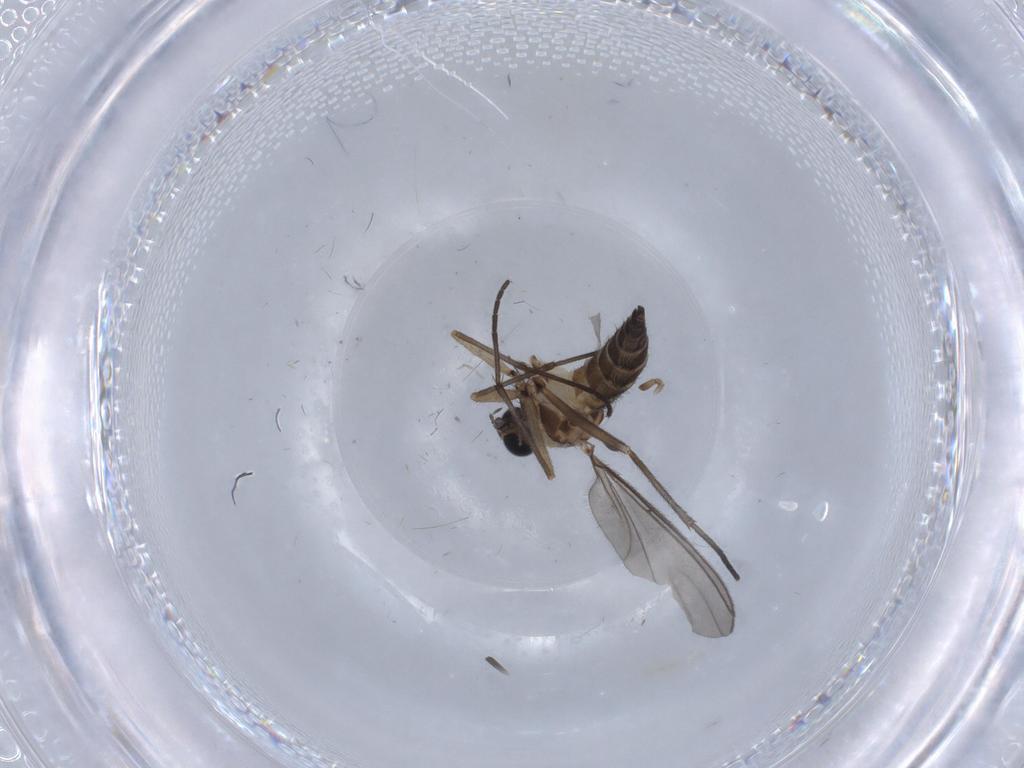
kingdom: Animalia
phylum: Arthropoda
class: Insecta
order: Diptera
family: Sciaridae
